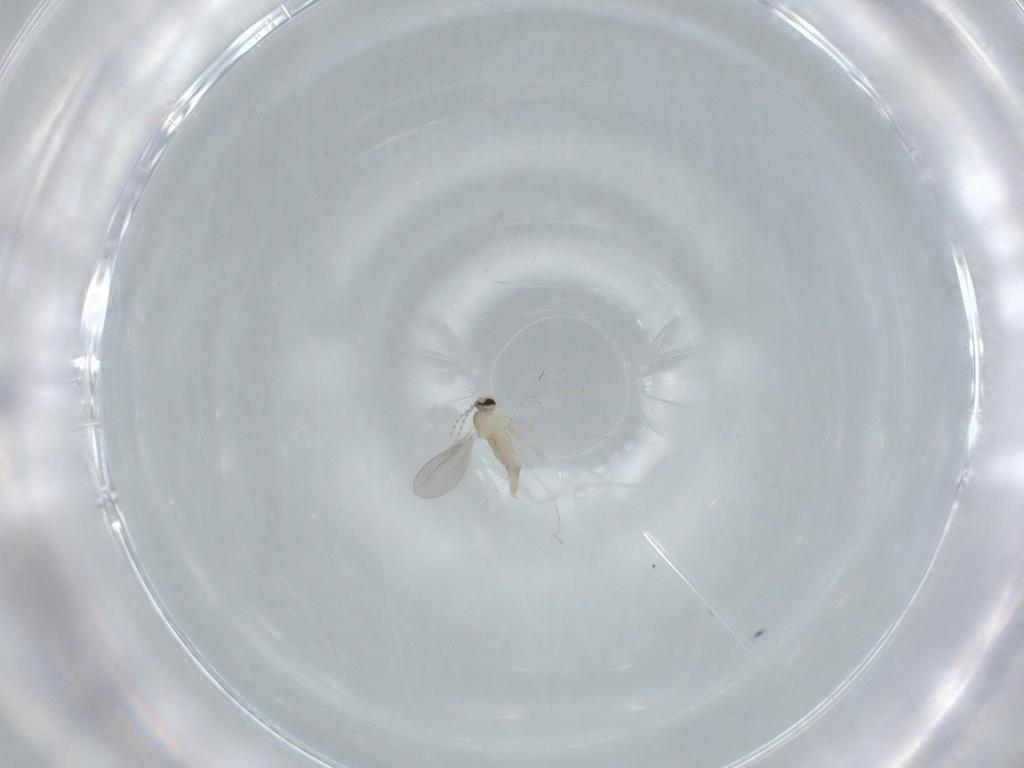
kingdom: Animalia
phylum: Arthropoda
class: Insecta
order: Diptera
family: Cecidomyiidae
